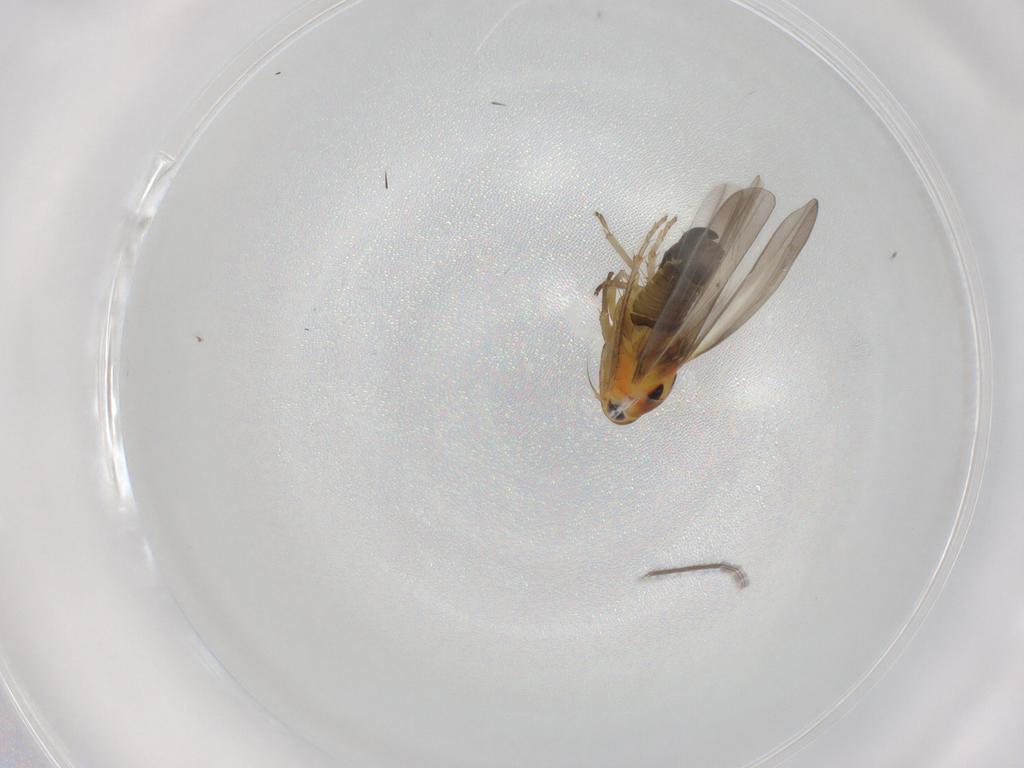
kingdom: Animalia
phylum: Arthropoda
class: Insecta
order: Hemiptera
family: Cicadellidae
